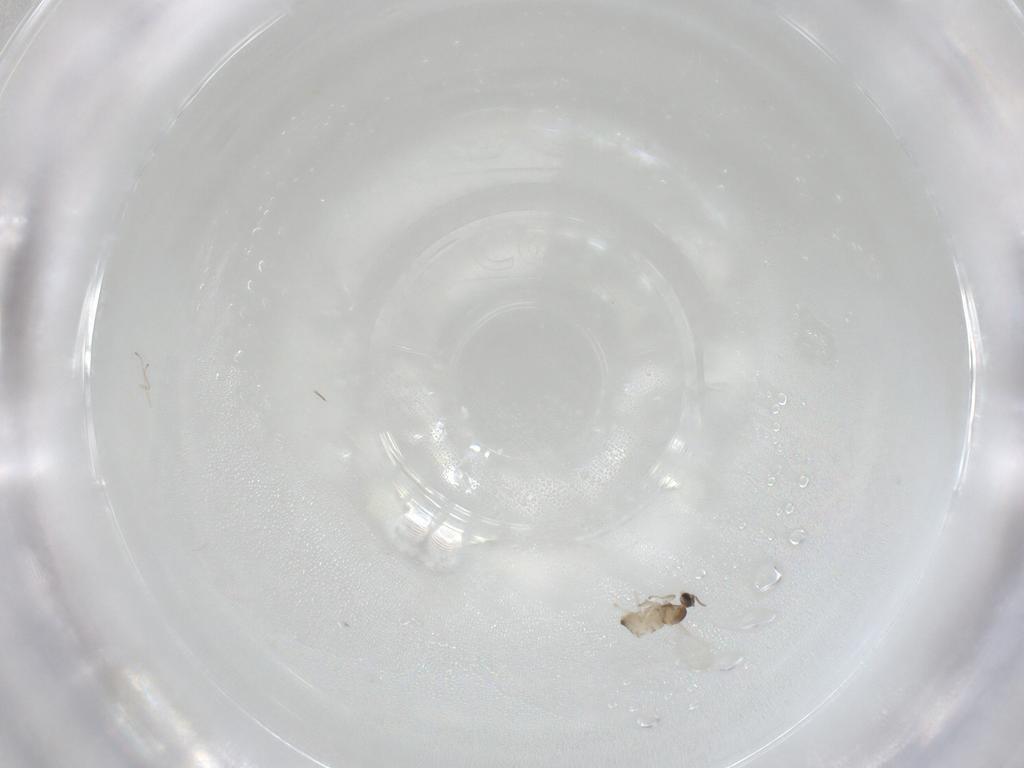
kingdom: Animalia
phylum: Arthropoda
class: Insecta
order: Diptera
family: Cecidomyiidae
